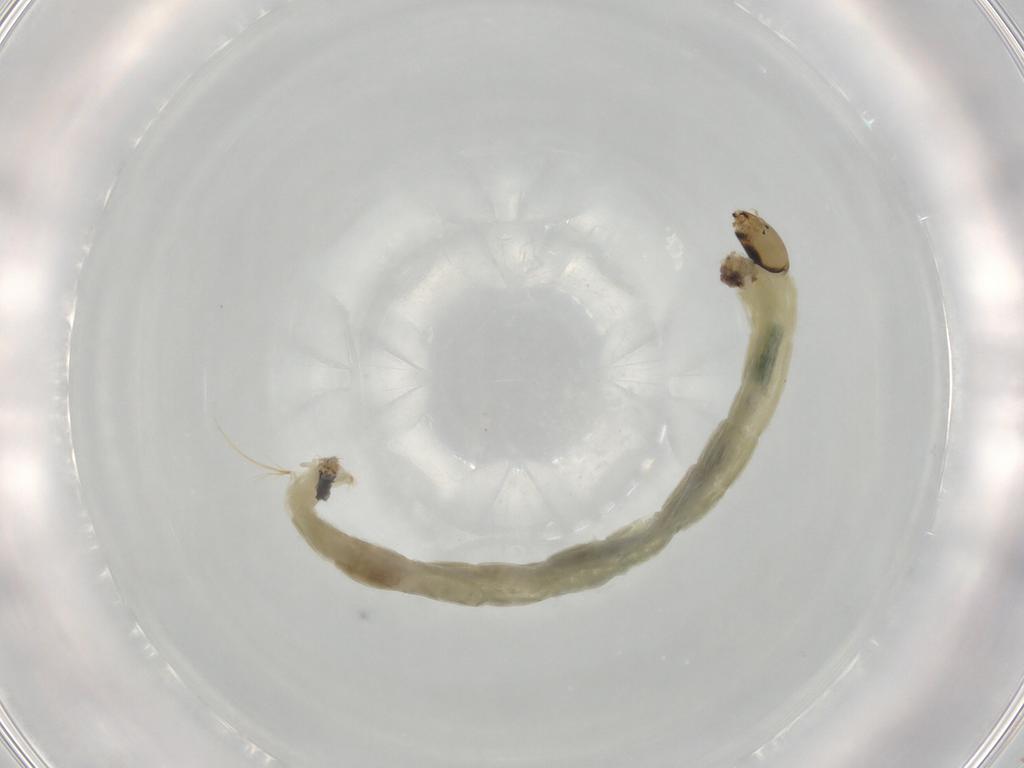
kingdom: Animalia
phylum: Arthropoda
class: Insecta
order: Diptera
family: Chironomidae
